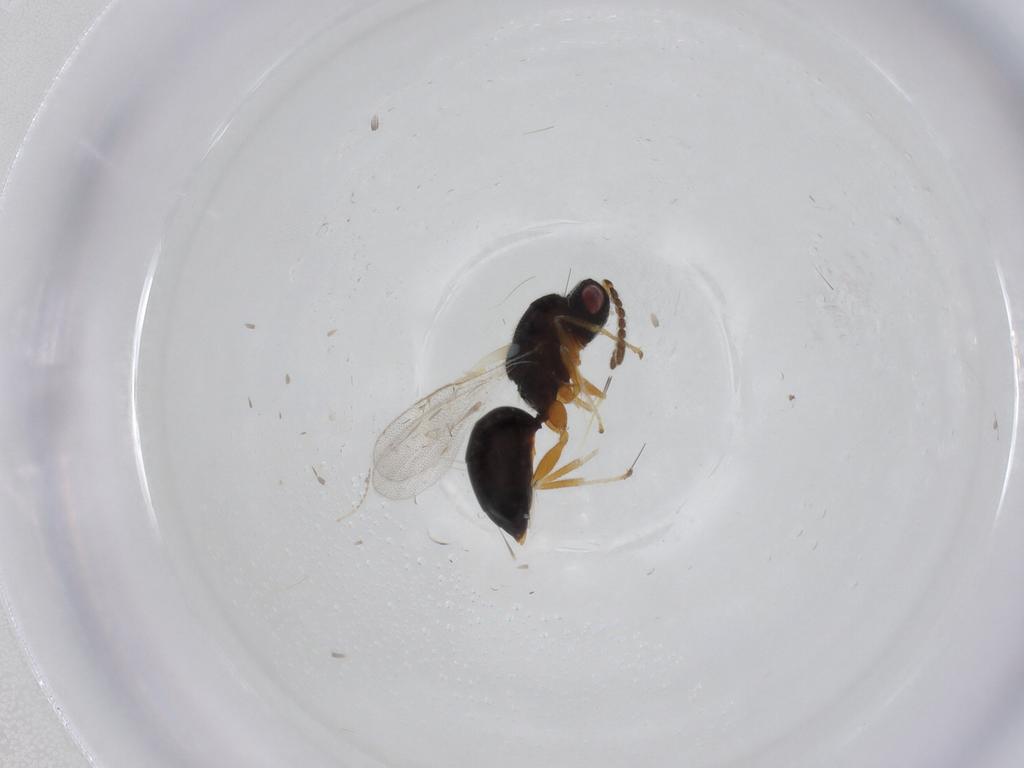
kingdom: Animalia
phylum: Arthropoda
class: Insecta
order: Hymenoptera
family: Eurytomidae
